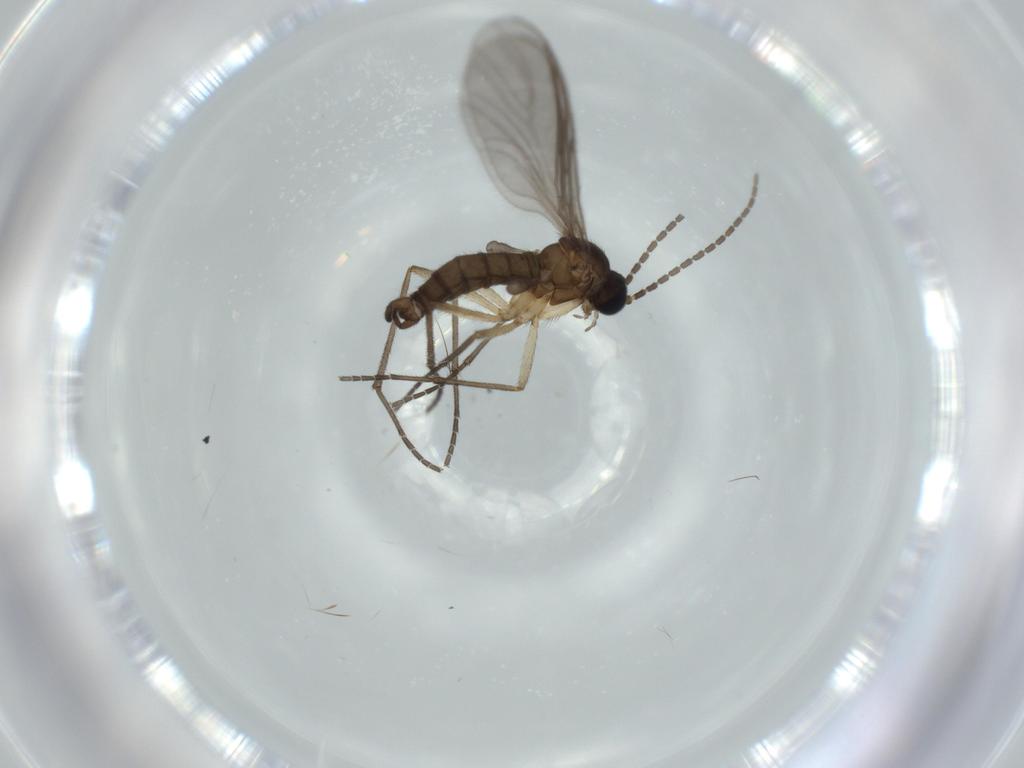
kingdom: Animalia
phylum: Arthropoda
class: Insecta
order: Diptera
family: Sciaridae
